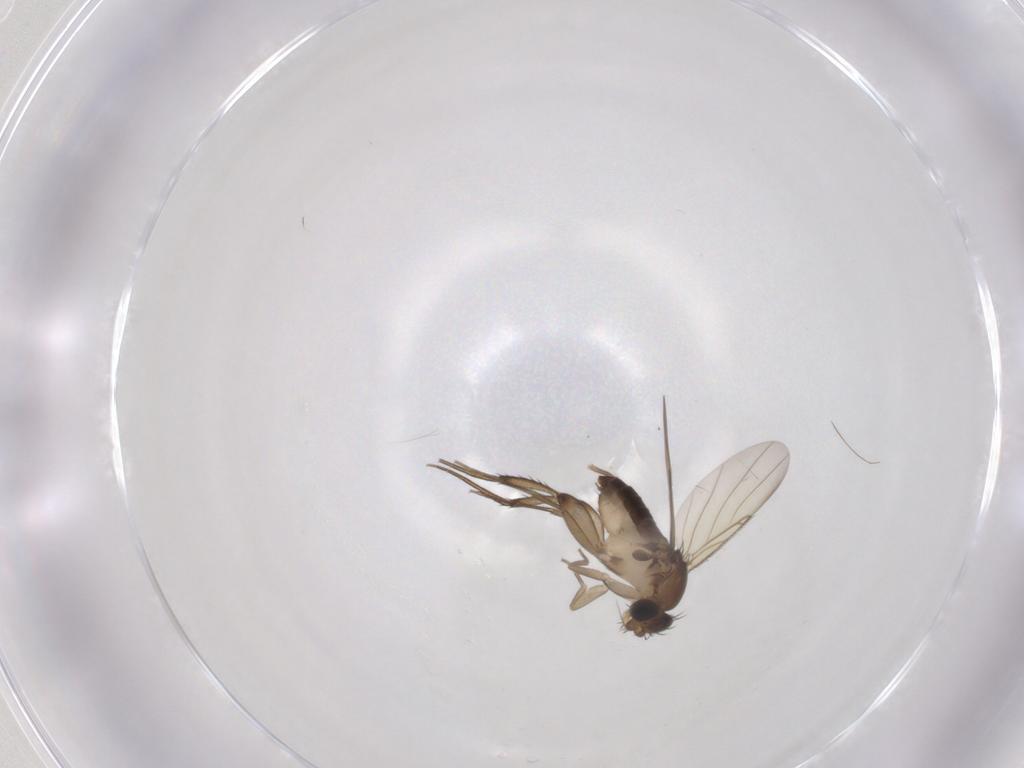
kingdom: Animalia
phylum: Arthropoda
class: Insecta
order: Diptera
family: Phoridae
